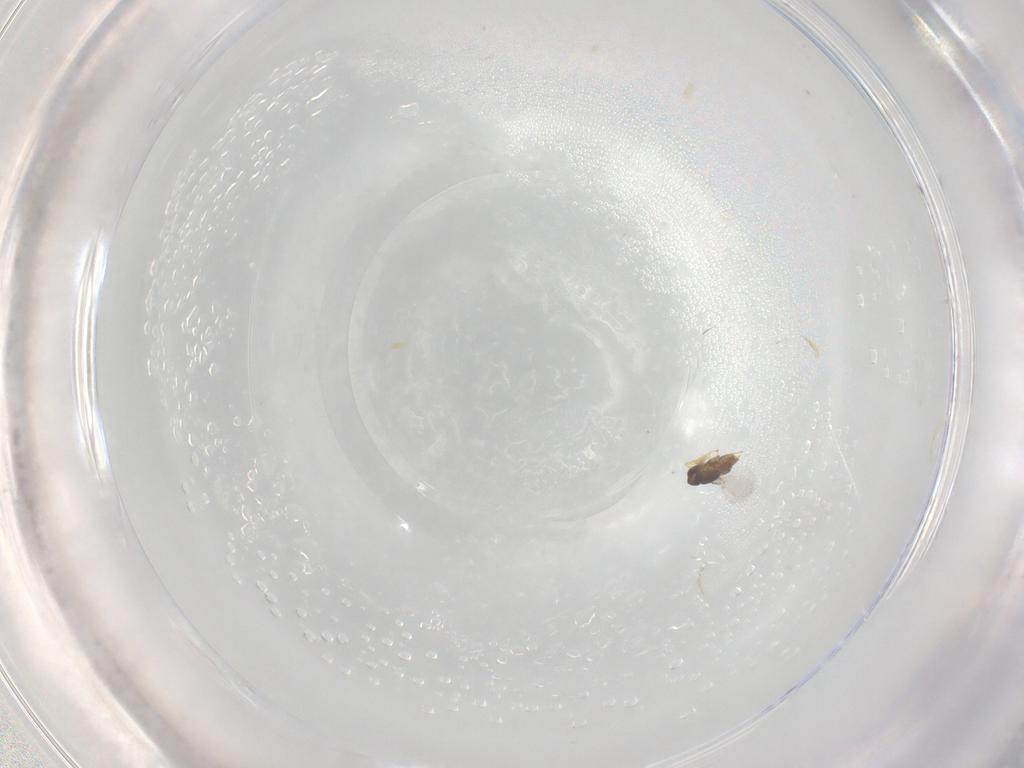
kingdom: Animalia
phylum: Arthropoda
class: Insecta
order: Hymenoptera
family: Encyrtidae
